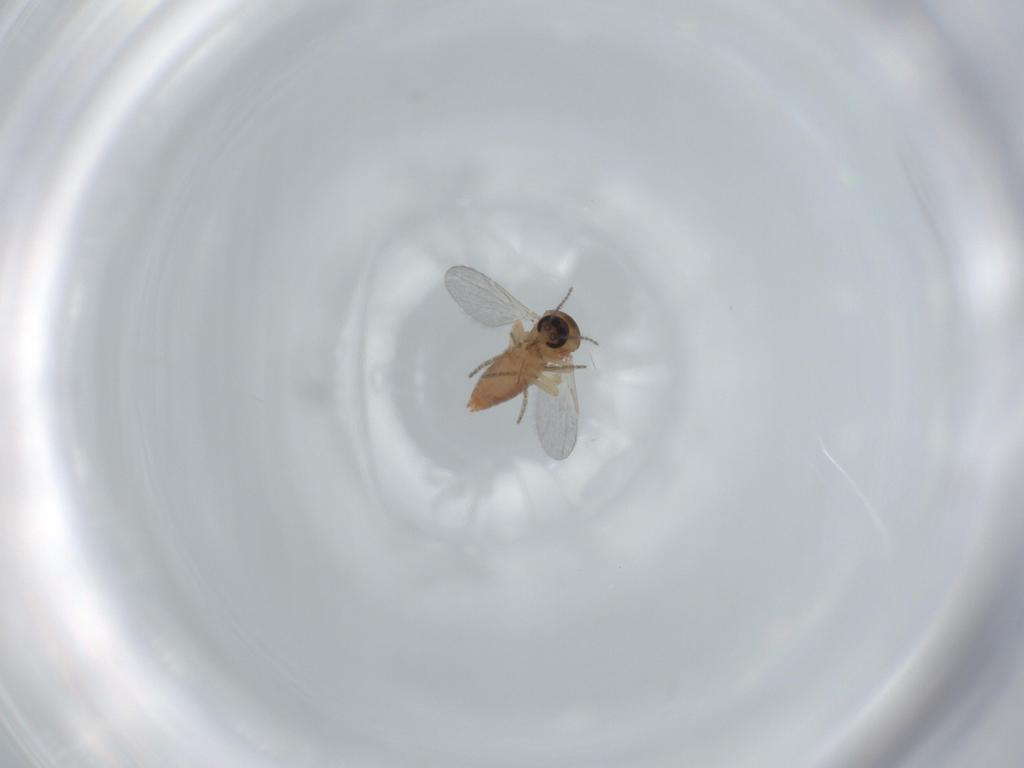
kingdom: Animalia
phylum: Arthropoda
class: Insecta
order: Diptera
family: Ceratopogonidae
